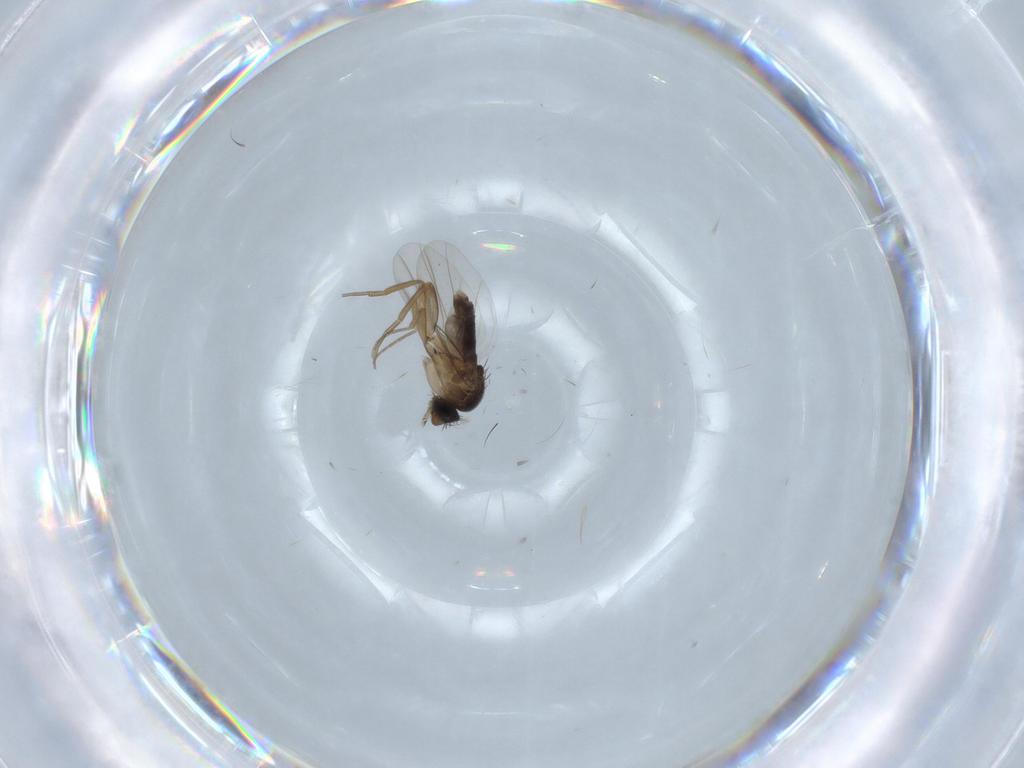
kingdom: Animalia
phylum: Arthropoda
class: Insecta
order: Diptera
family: Phoridae
